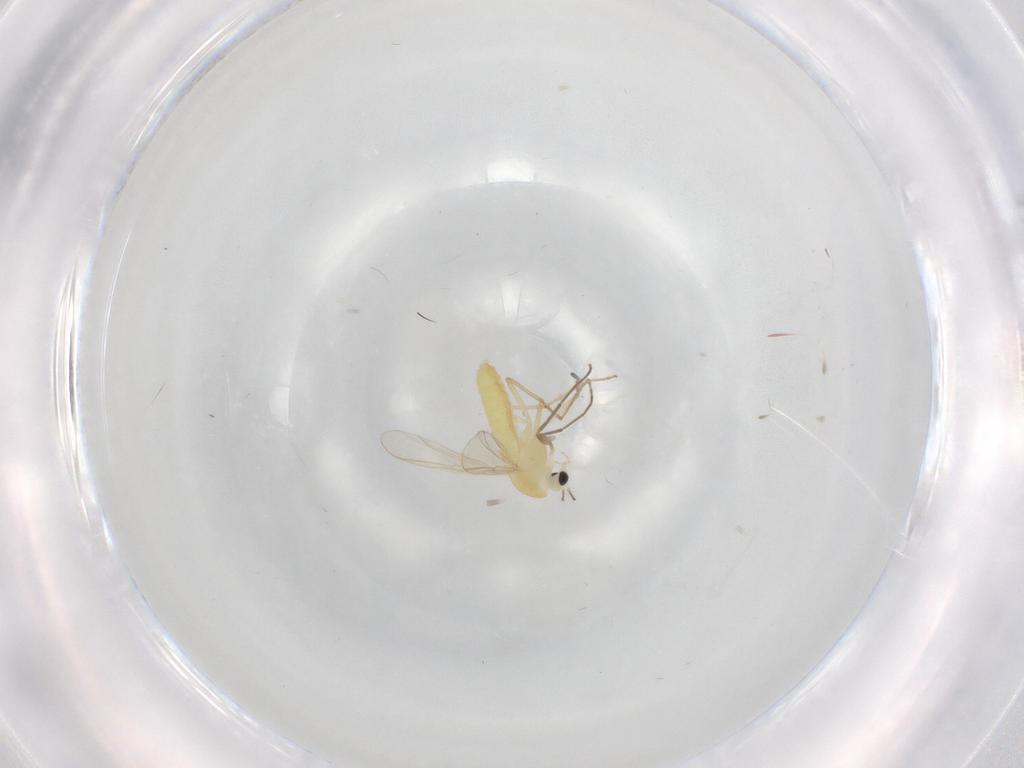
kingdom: Animalia
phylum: Arthropoda
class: Insecta
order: Diptera
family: Chironomidae
